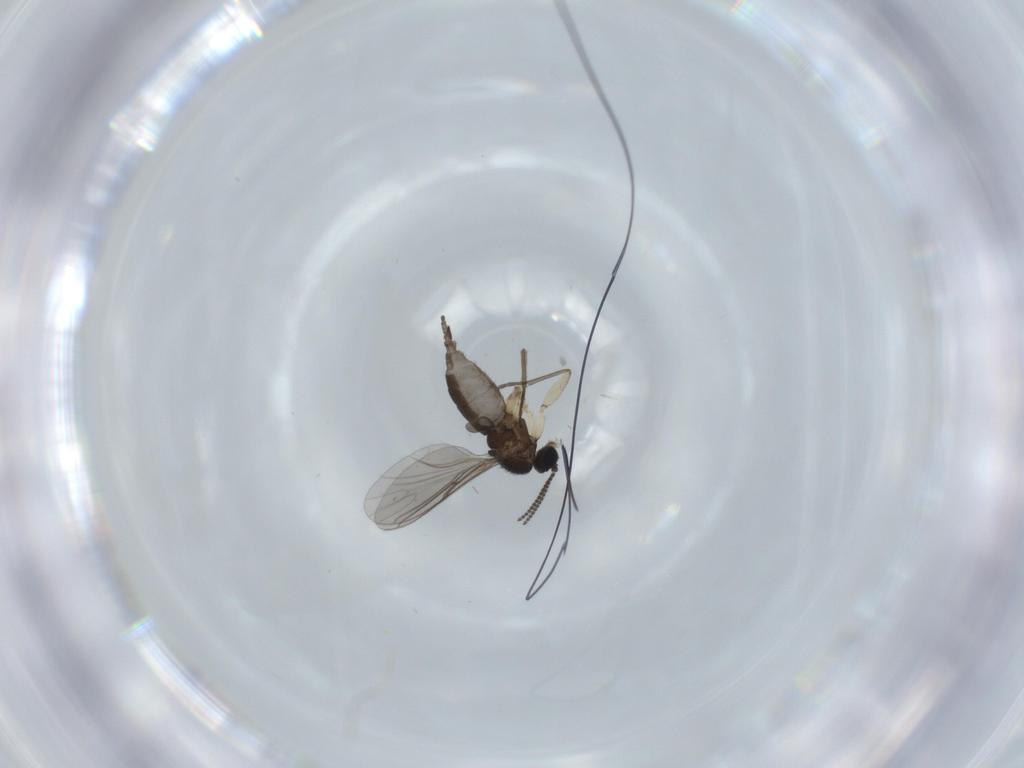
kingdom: Animalia
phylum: Arthropoda
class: Insecta
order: Diptera
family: Sciaridae
